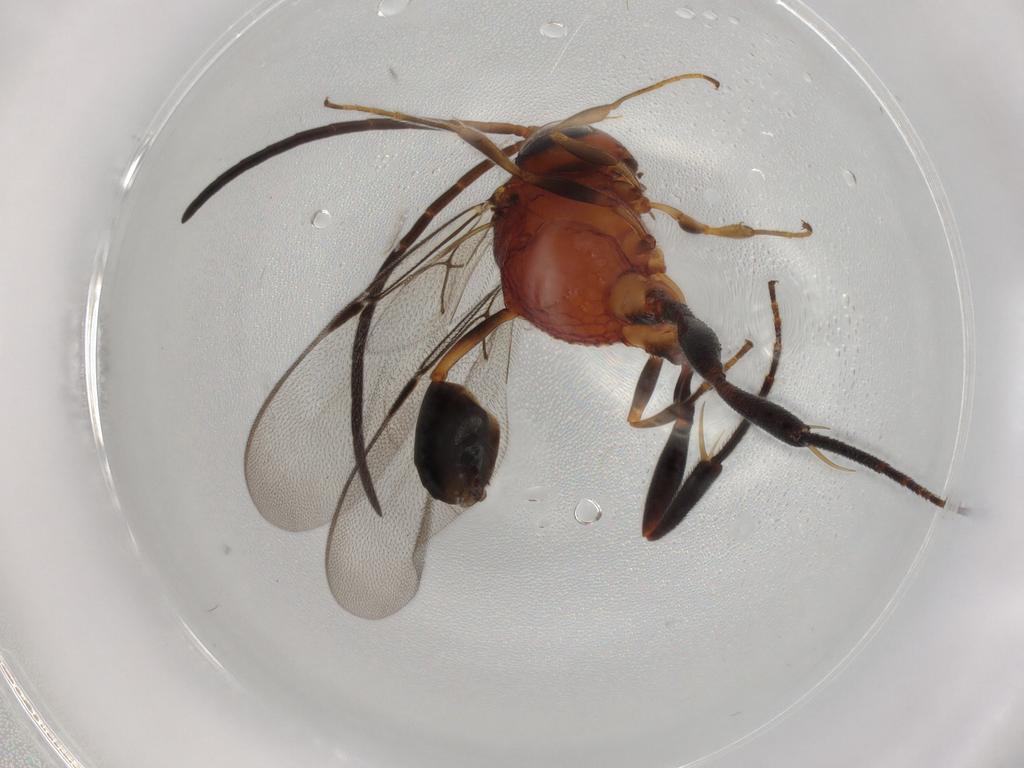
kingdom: Animalia
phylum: Arthropoda
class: Insecta
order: Hymenoptera
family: Evaniidae
